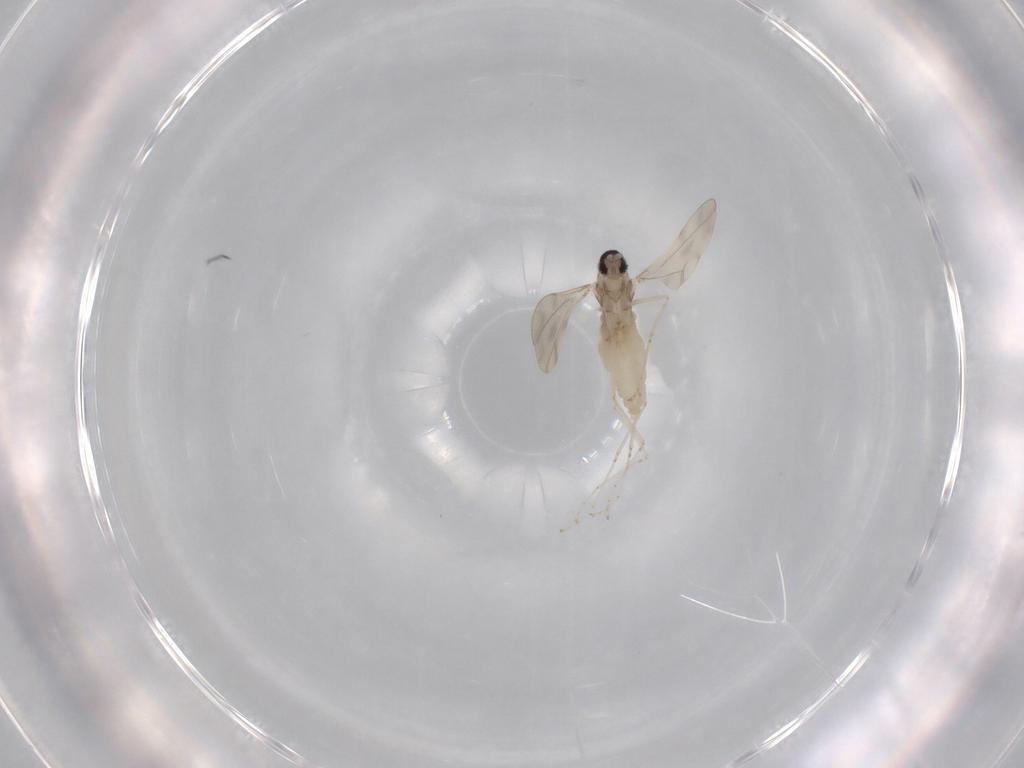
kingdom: Animalia
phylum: Arthropoda
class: Insecta
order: Diptera
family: Cecidomyiidae
